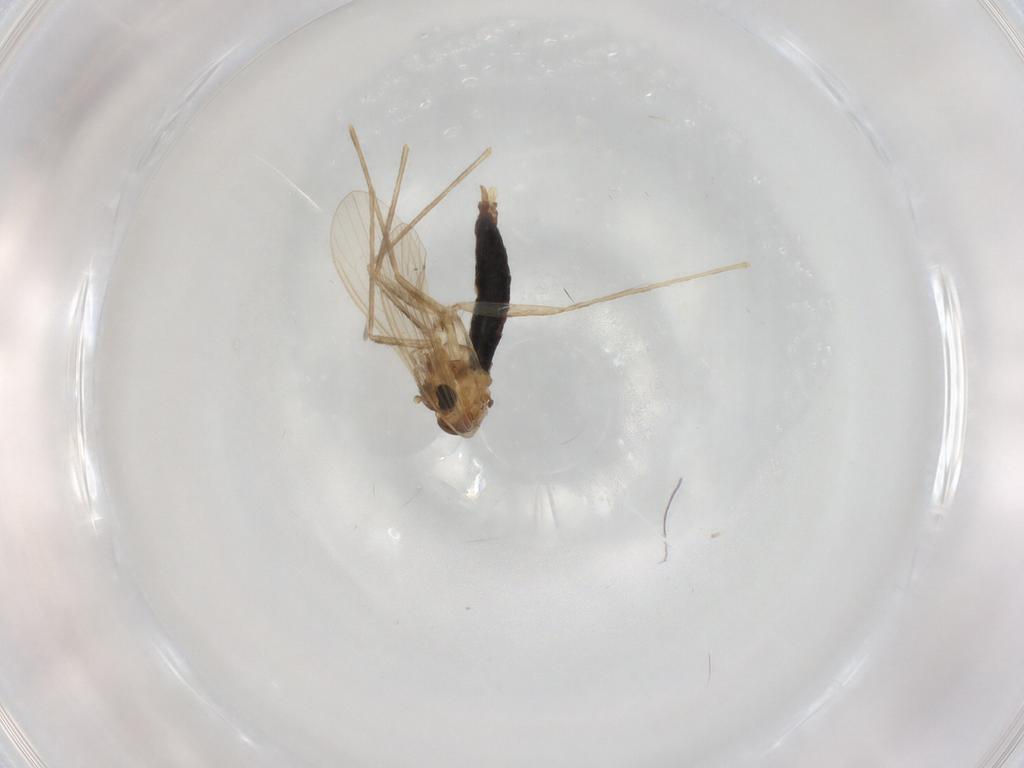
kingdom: Animalia
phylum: Arthropoda
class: Insecta
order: Diptera
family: Psychodidae
